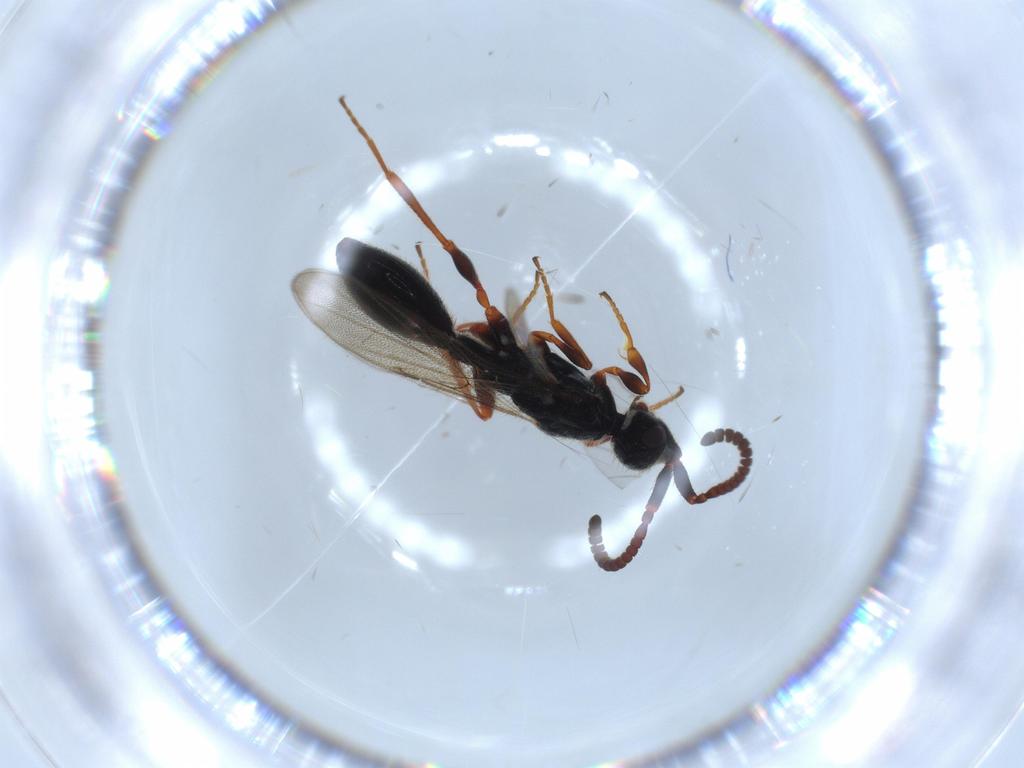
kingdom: Animalia
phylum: Arthropoda
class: Insecta
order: Hymenoptera
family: Diapriidae
